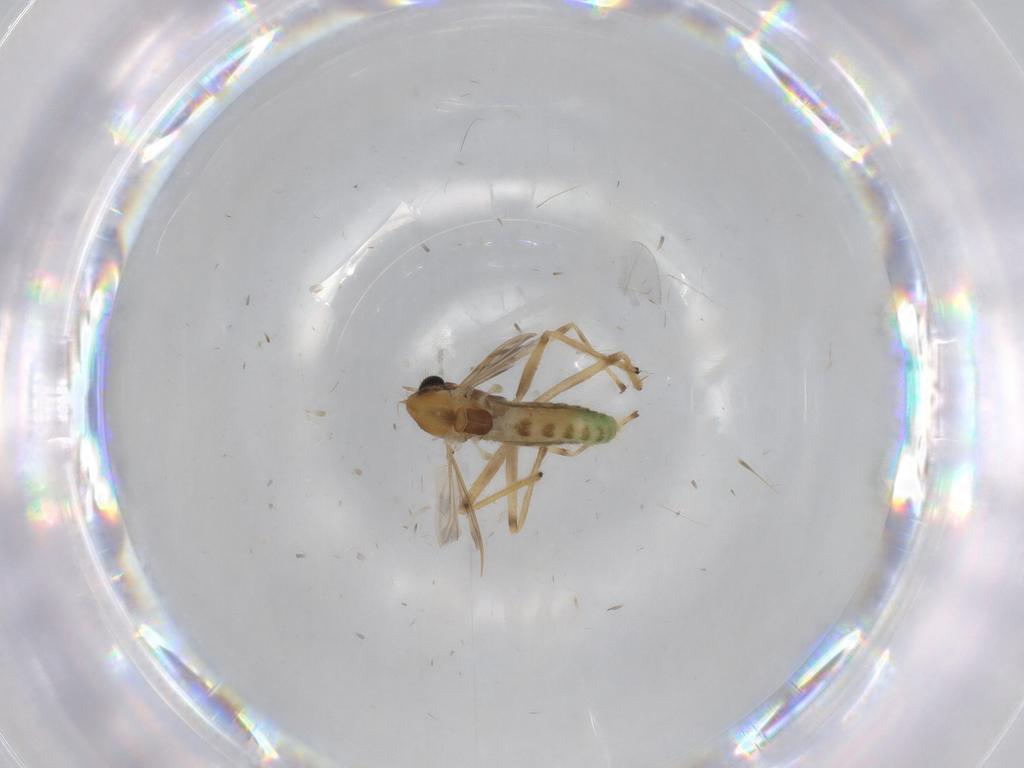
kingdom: Animalia
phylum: Arthropoda
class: Insecta
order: Diptera
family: Chironomidae
